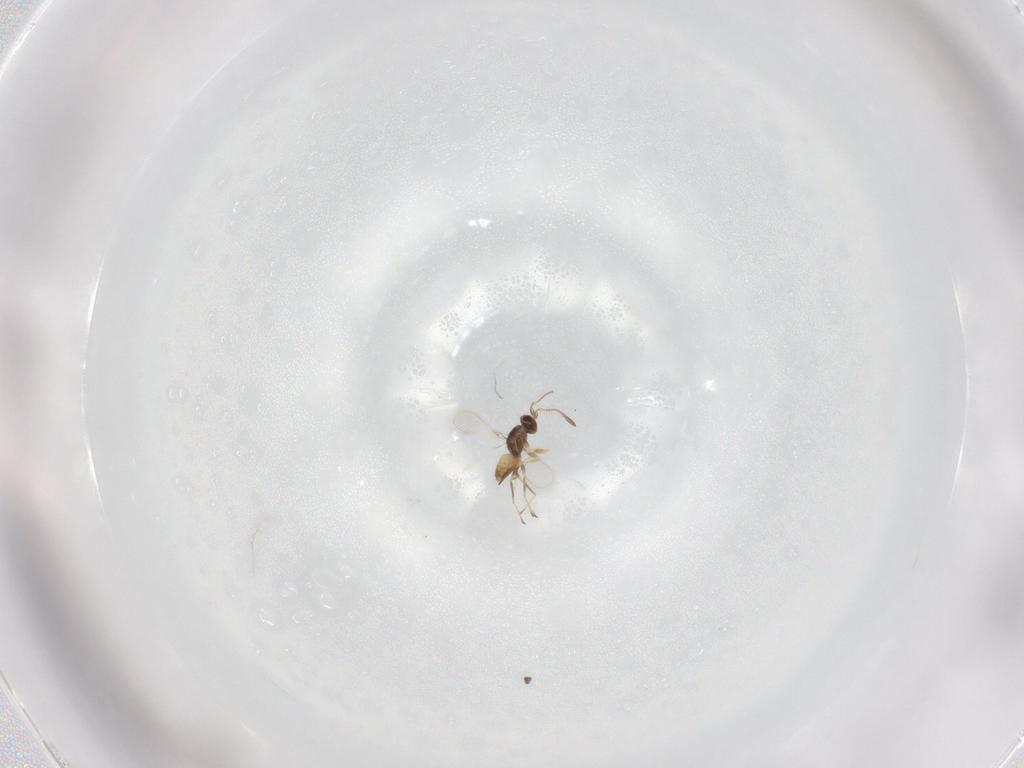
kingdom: Animalia
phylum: Arthropoda
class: Insecta
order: Hymenoptera
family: Mymaridae
